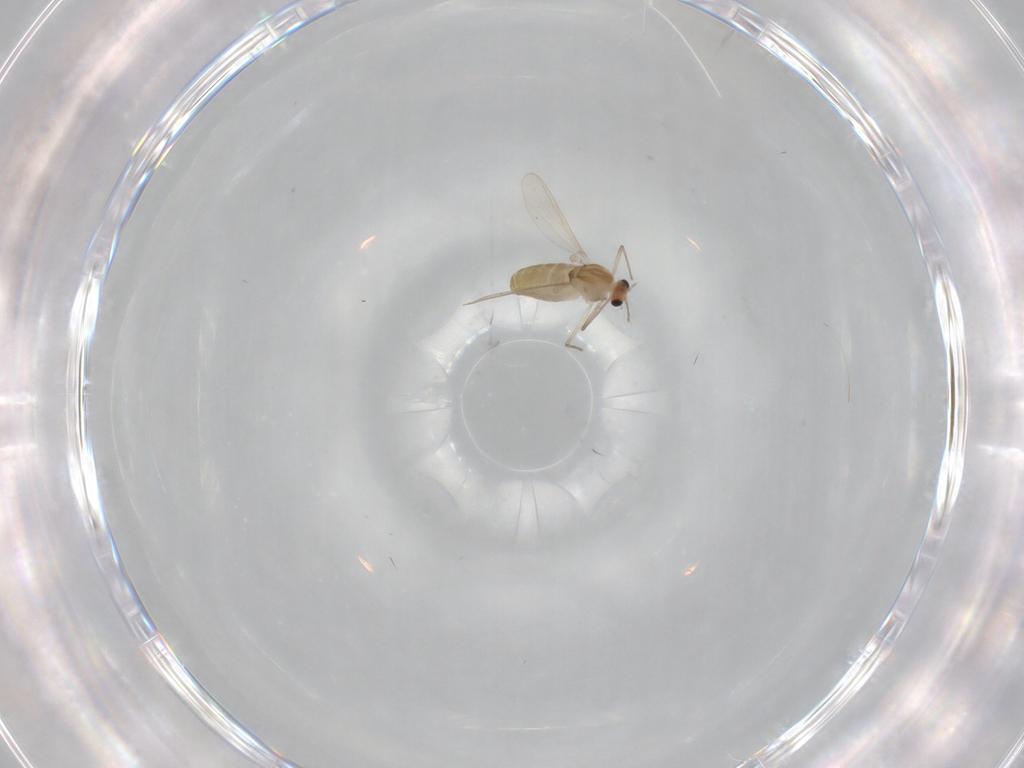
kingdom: Animalia
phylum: Arthropoda
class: Insecta
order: Diptera
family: Chironomidae
